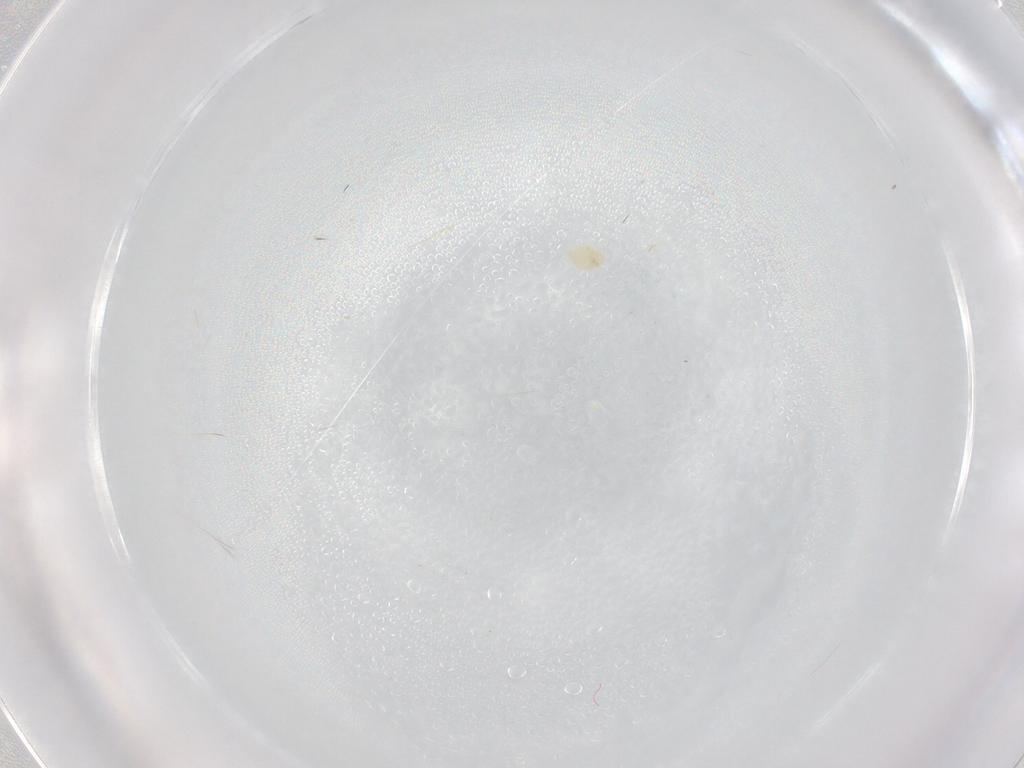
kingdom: Animalia
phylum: Arthropoda
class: Arachnida
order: Trombidiformes
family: Tetranychidae
